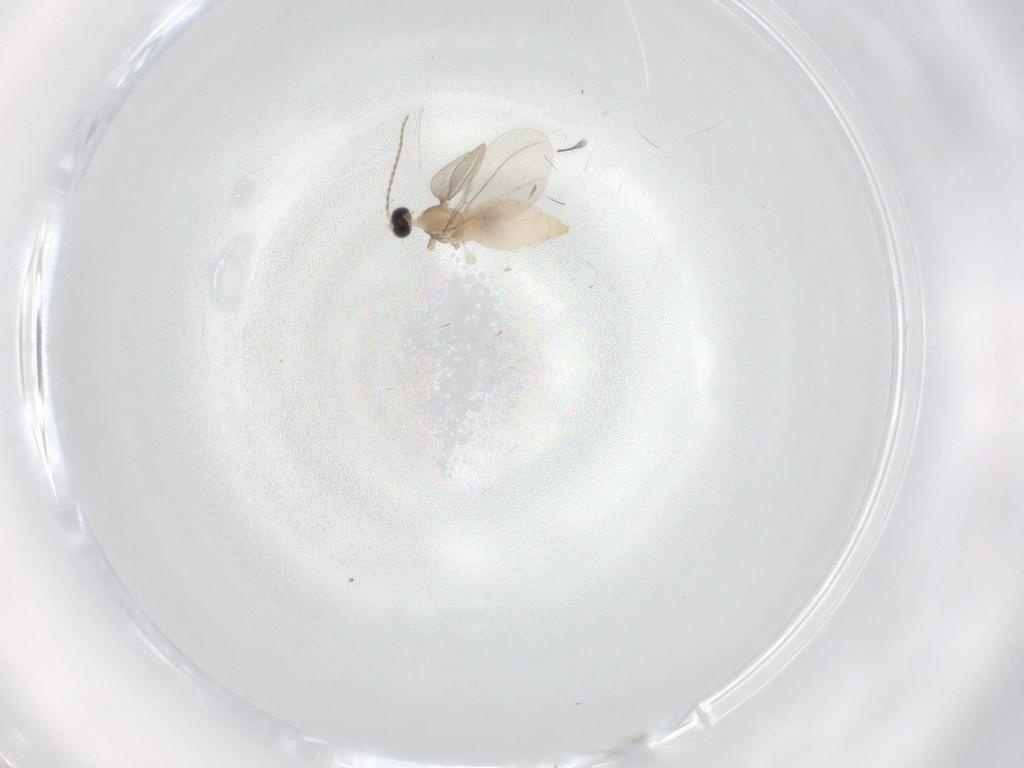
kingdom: Animalia
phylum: Arthropoda
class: Insecta
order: Diptera
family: Cecidomyiidae
